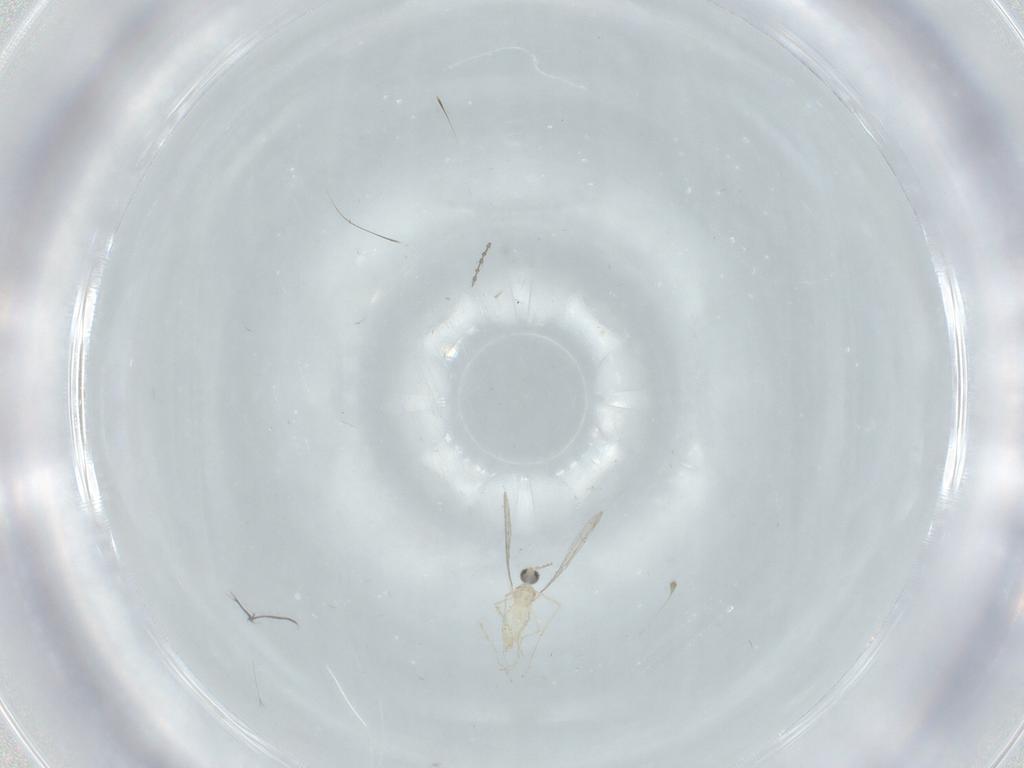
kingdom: Animalia
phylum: Arthropoda
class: Insecta
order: Diptera
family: Cecidomyiidae
